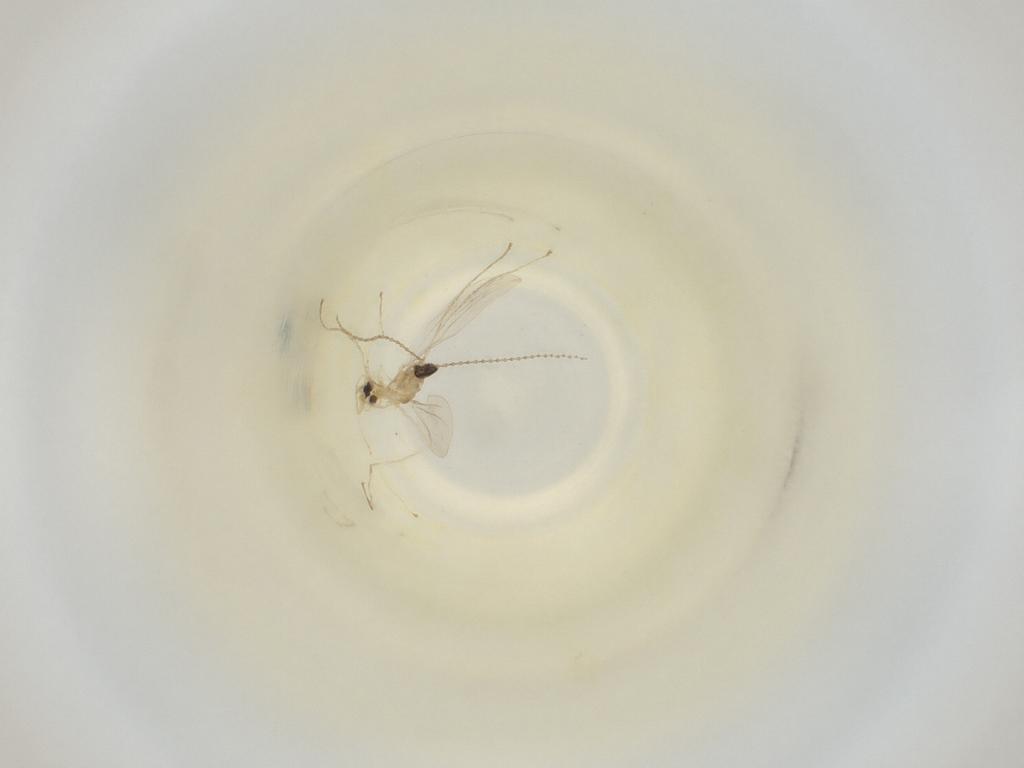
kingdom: Animalia
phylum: Arthropoda
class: Insecta
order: Diptera
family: Cecidomyiidae
